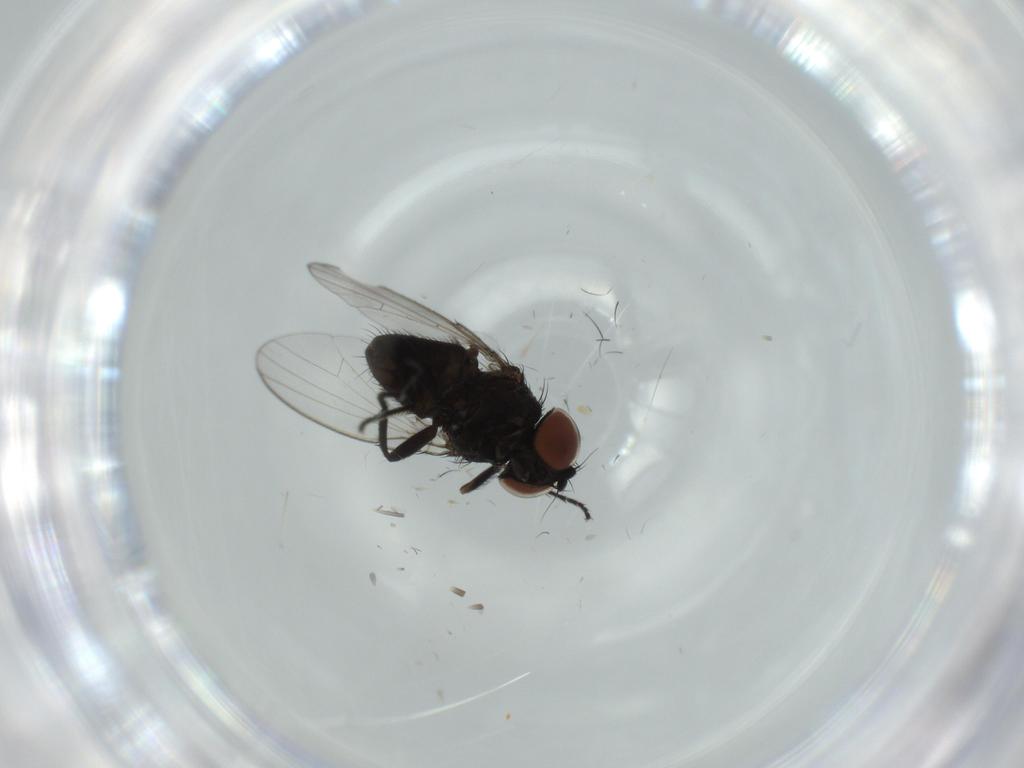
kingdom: Animalia
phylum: Arthropoda
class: Insecta
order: Diptera
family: Milichiidae
